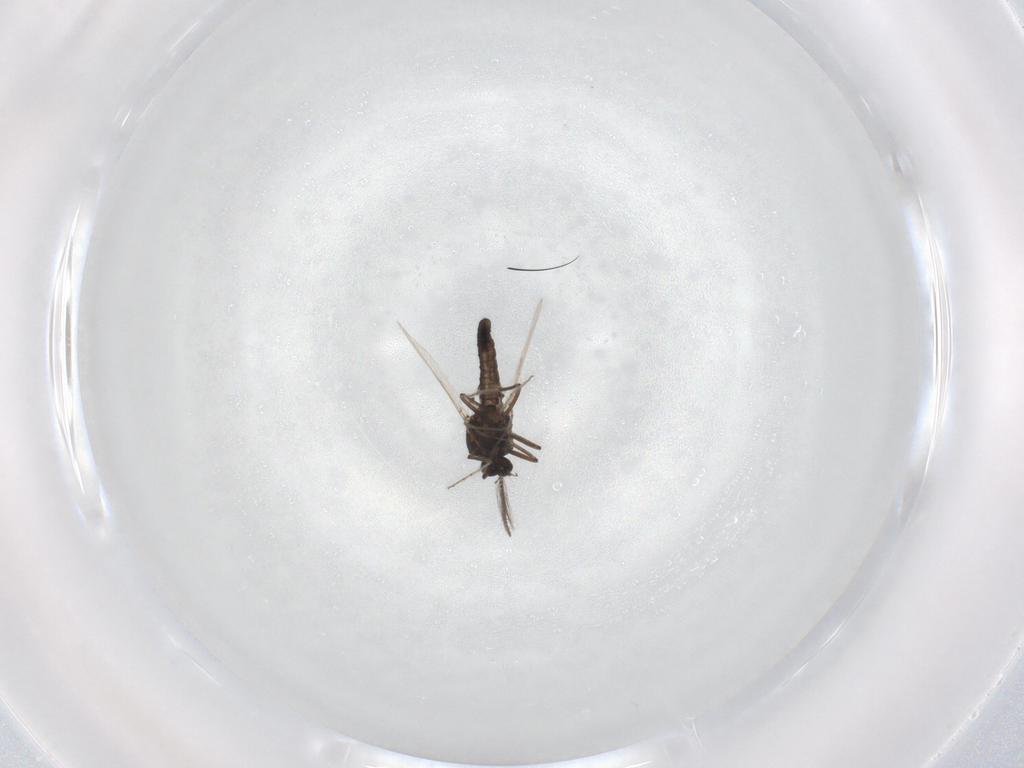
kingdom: Animalia
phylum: Arthropoda
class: Insecta
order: Diptera
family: Ceratopogonidae
